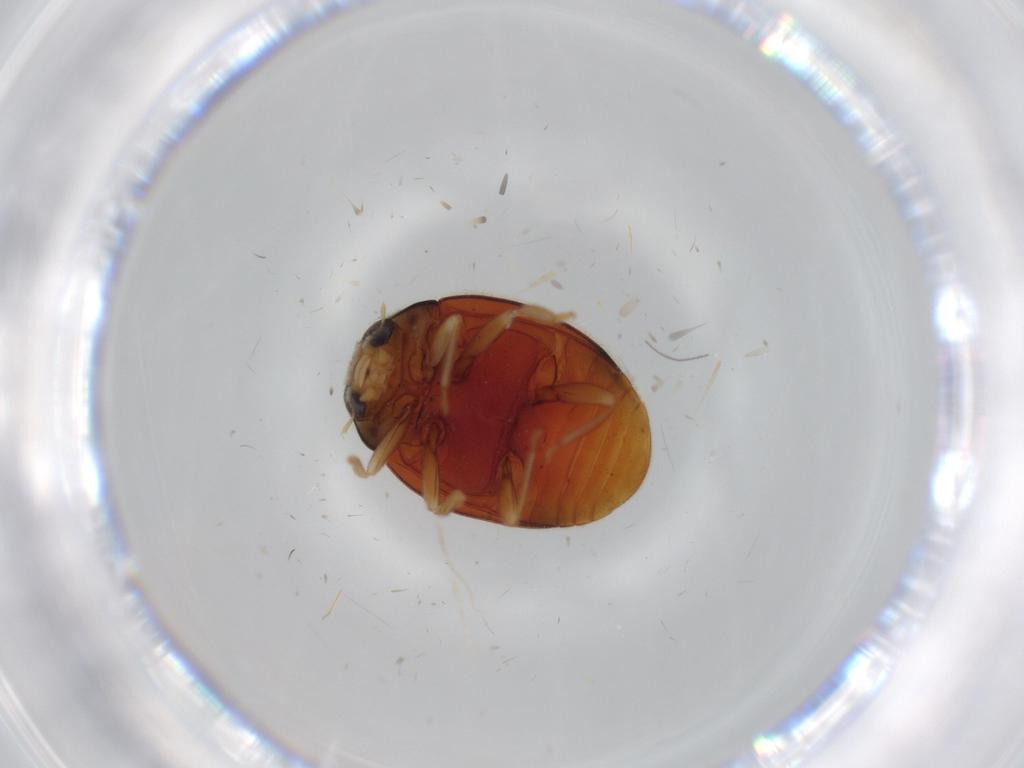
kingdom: Animalia
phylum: Arthropoda
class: Insecta
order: Coleoptera
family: Coccinellidae
